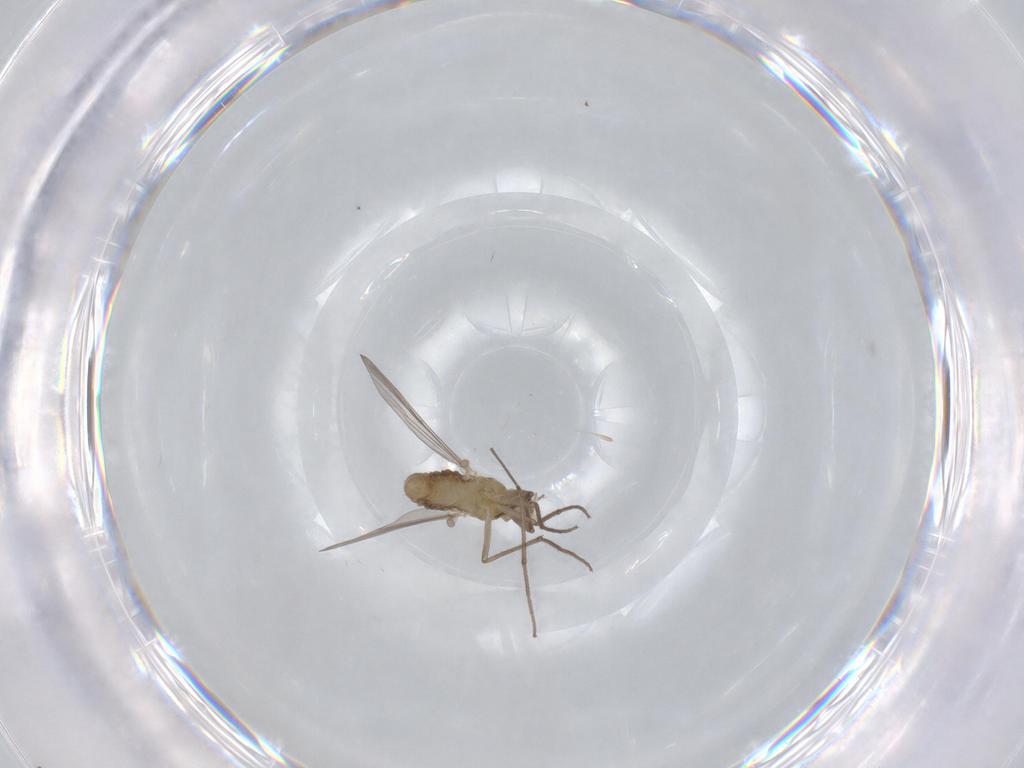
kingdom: Animalia
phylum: Arthropoda
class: Insecta
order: Diptera
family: Chironomidae
